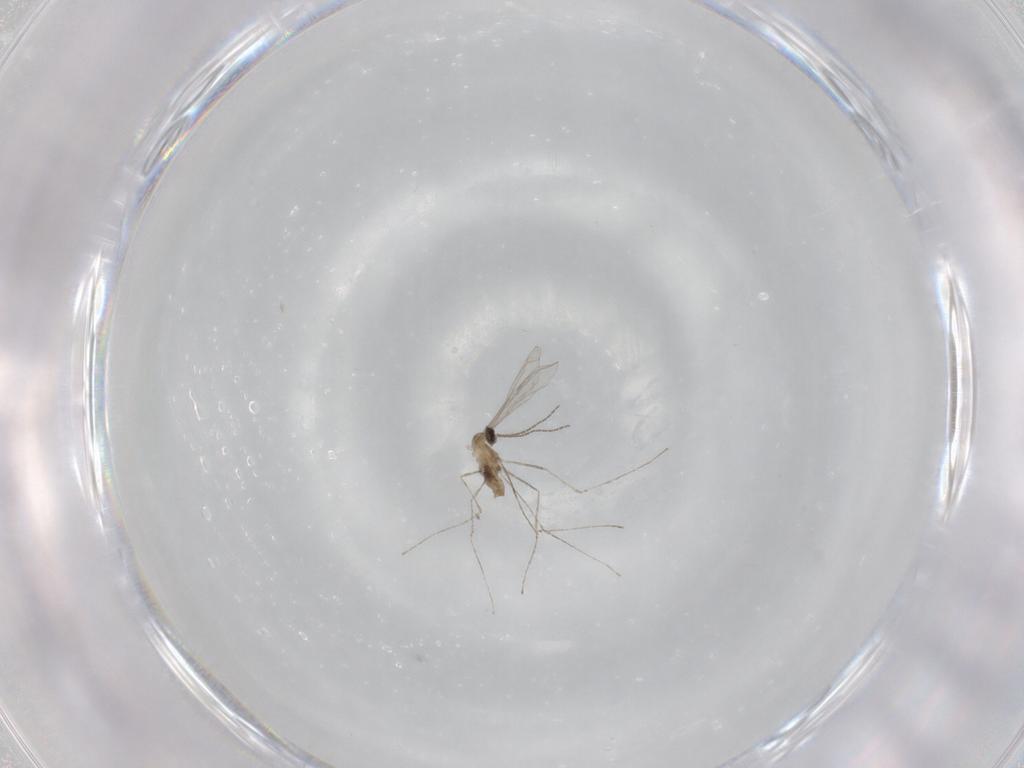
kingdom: Animalia
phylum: Arthropoda
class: Insecta
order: Diptera
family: Cecidomyiidae
